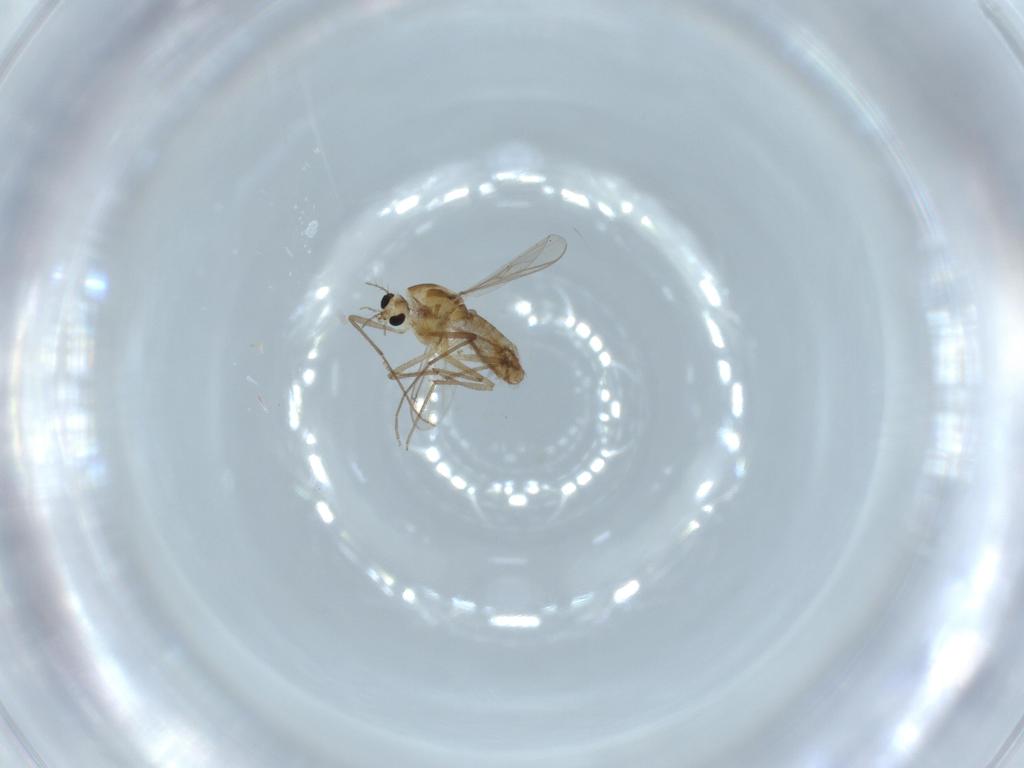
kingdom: Animalia
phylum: Arthropoda
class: Insecta
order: Diptera
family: Chironomidae
